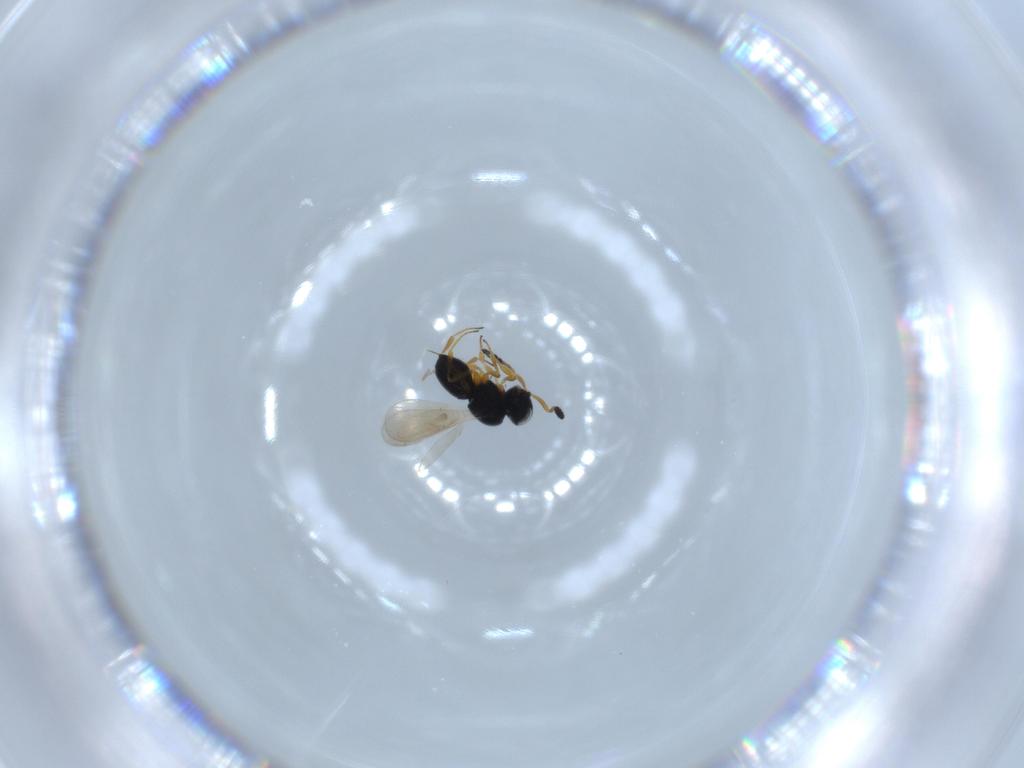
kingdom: Animalia
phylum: Arthropoda
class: Insecta
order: Hymenoptera
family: Scelionidae
